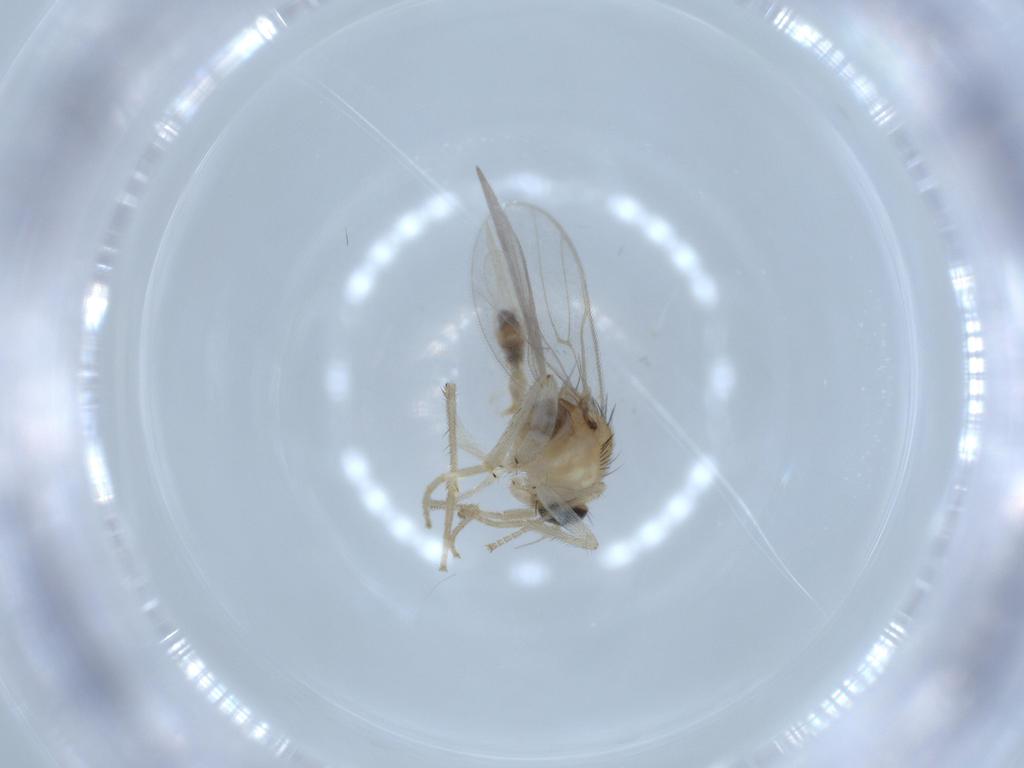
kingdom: Animalia
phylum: Arthropoda
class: Insecta
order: Diptera
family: Hybotidae
